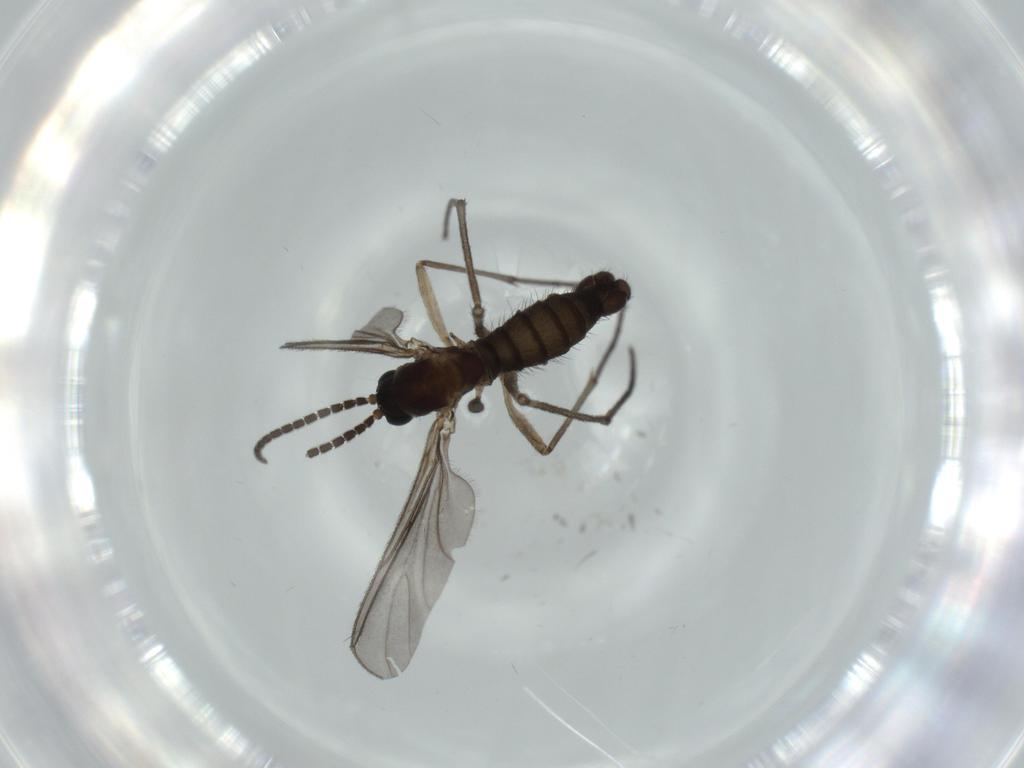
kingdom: Animalia
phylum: Arthropoda
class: Insecta
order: Diptera
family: Sciaridae
